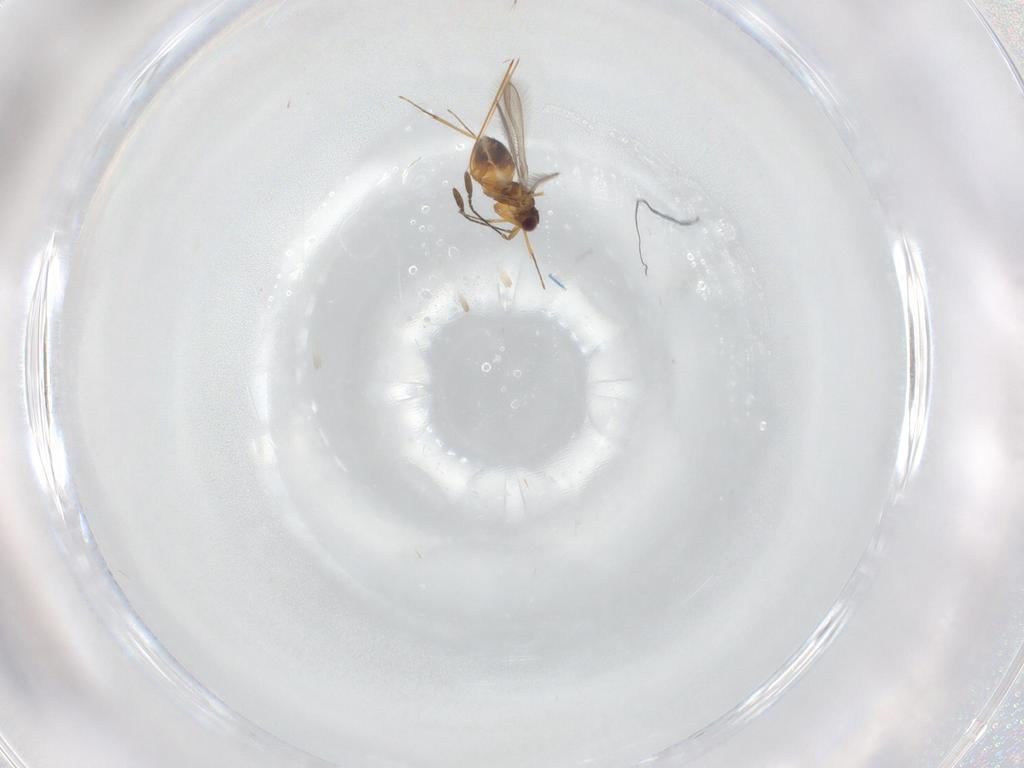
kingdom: Animalia
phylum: Arthropoda
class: Insecta
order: Hymenoptera
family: Mymaridae
